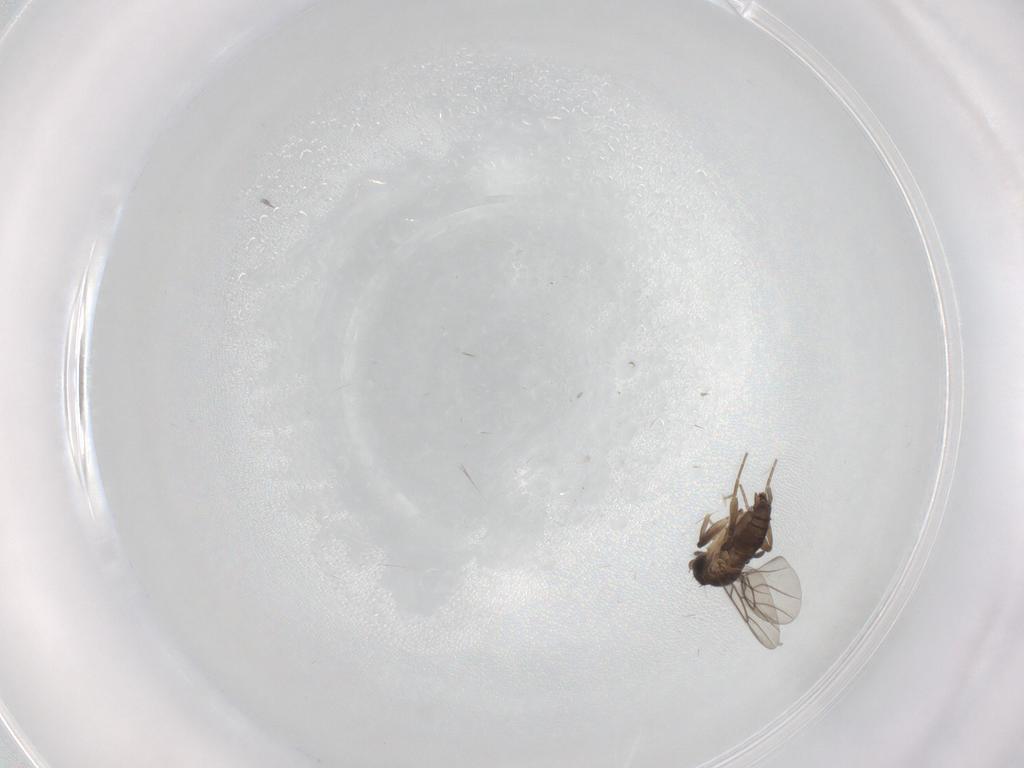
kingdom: Animalia
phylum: Arthropoda
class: Insecta
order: Diptera
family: Phoridae
